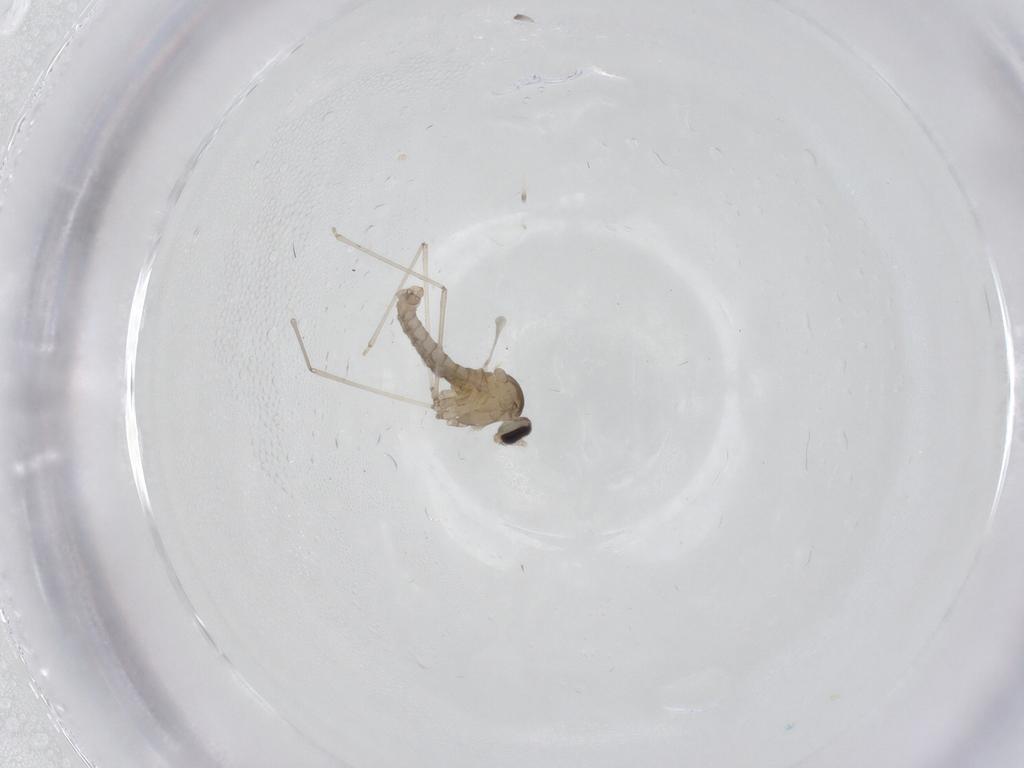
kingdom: Animalia
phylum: Arthropoda
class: Insecta
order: Diptera
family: Cecidomyiidae
